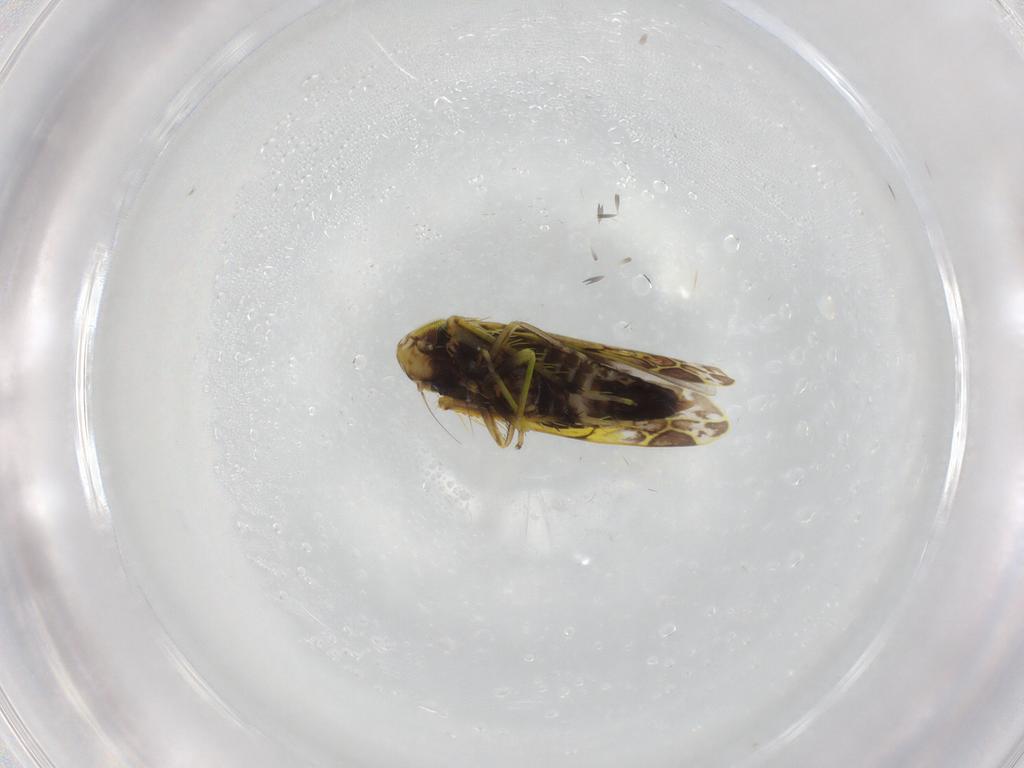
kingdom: Animalia
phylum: Arthropoda
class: Insecta
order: Hemiptera
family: Cicadellidae
